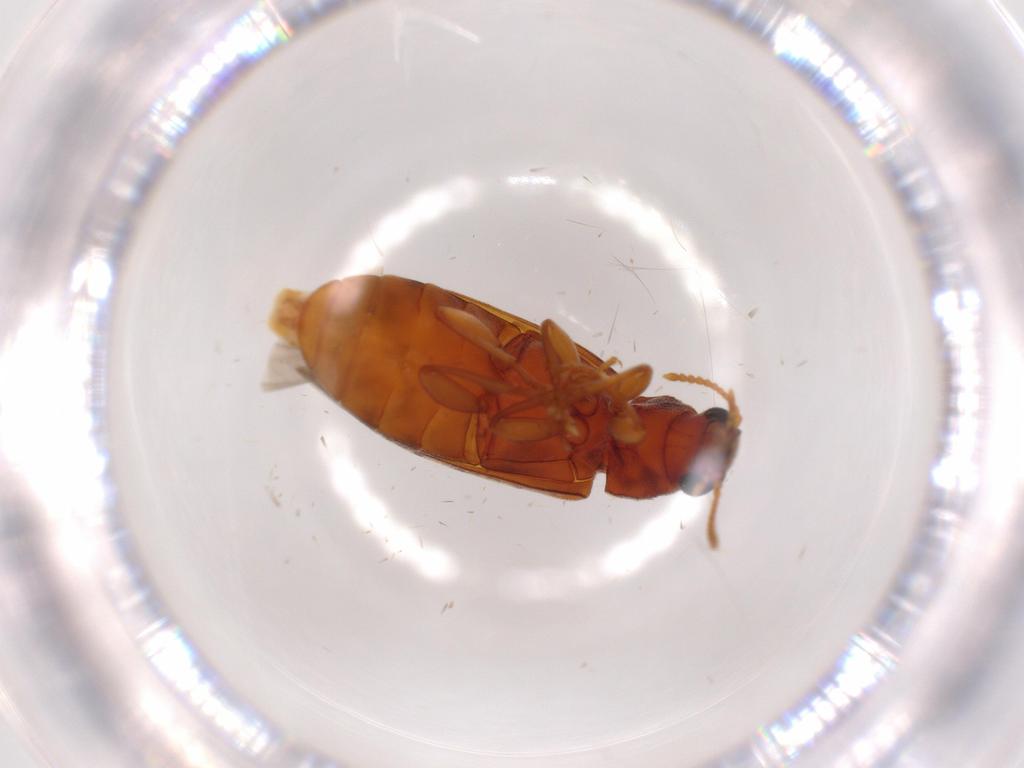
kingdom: Animalia
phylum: Arthropoda
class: Insecta
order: Coleoptera
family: Mycteridae
